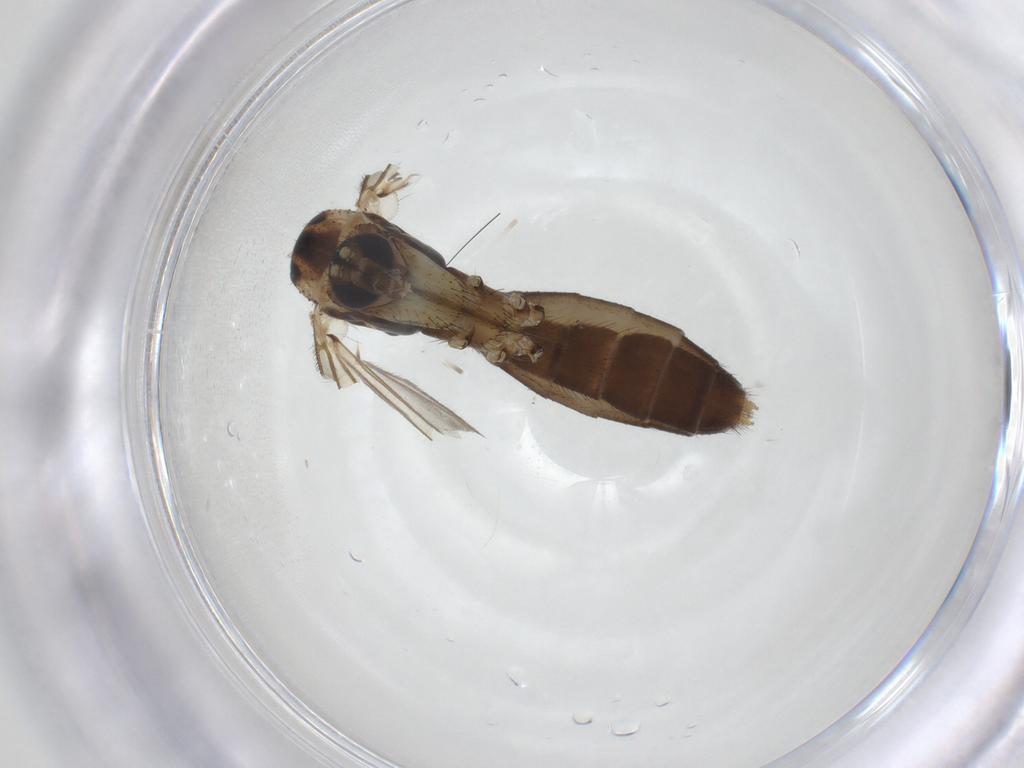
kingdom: Animalia
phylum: Arthropoda
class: Insecta
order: Diptera
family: Mycetophilidae
